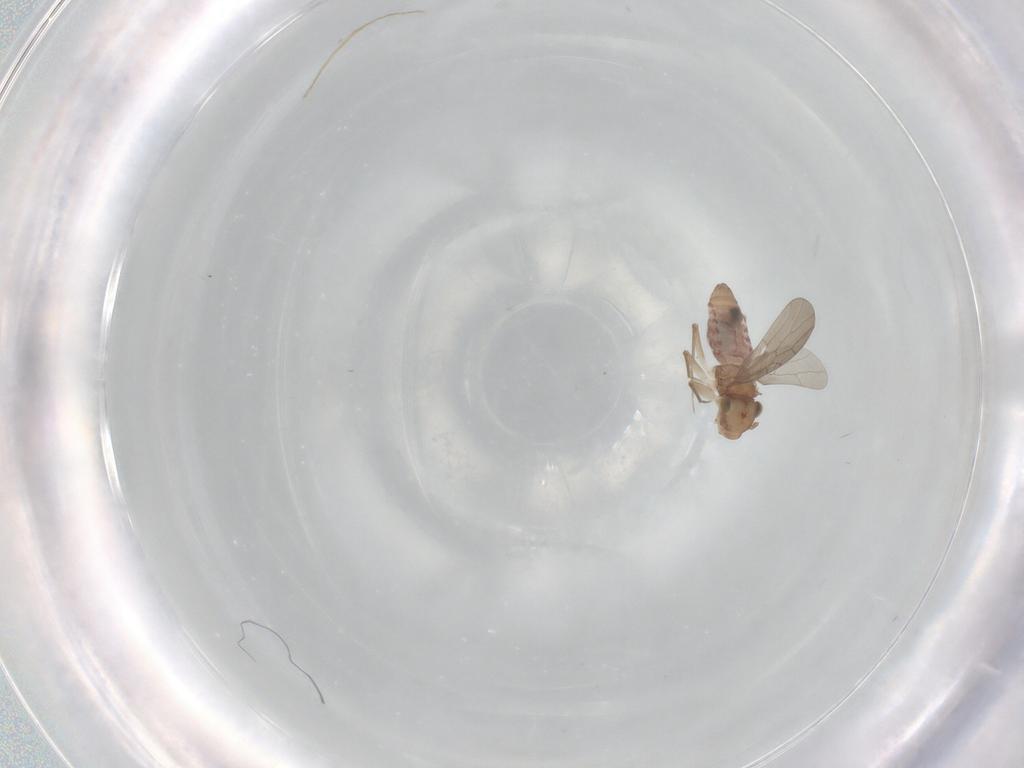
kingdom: Animalia
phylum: Arthropoda
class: Insecta
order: Psocodea
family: Lepidopsocidae
